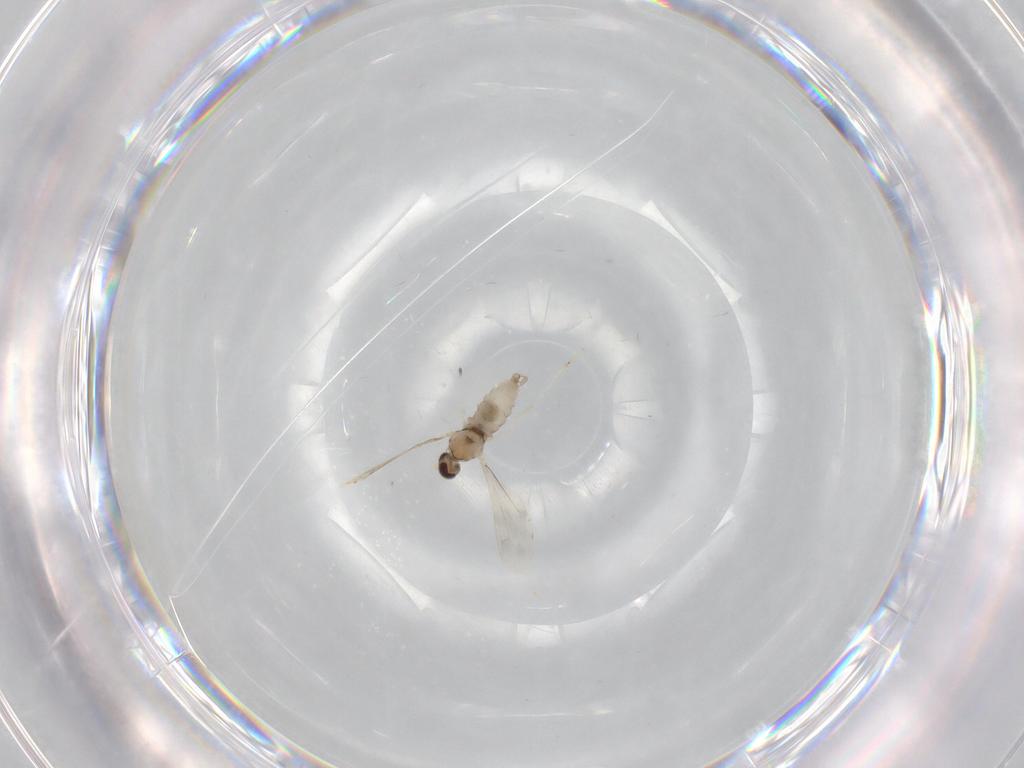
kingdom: Animalia
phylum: Arthropoda
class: Insecta
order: Diptera
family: Cecidomyiidae
